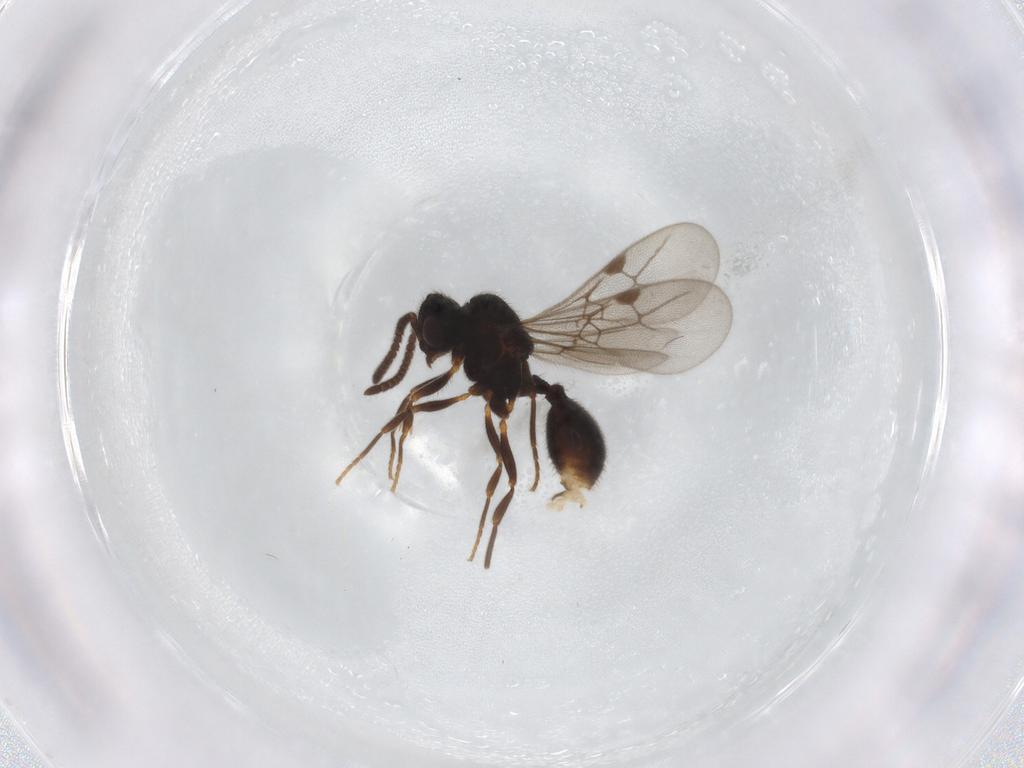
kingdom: Animalia
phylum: Arthropoda
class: Insecta
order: Hymenoptera
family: Formicidae
